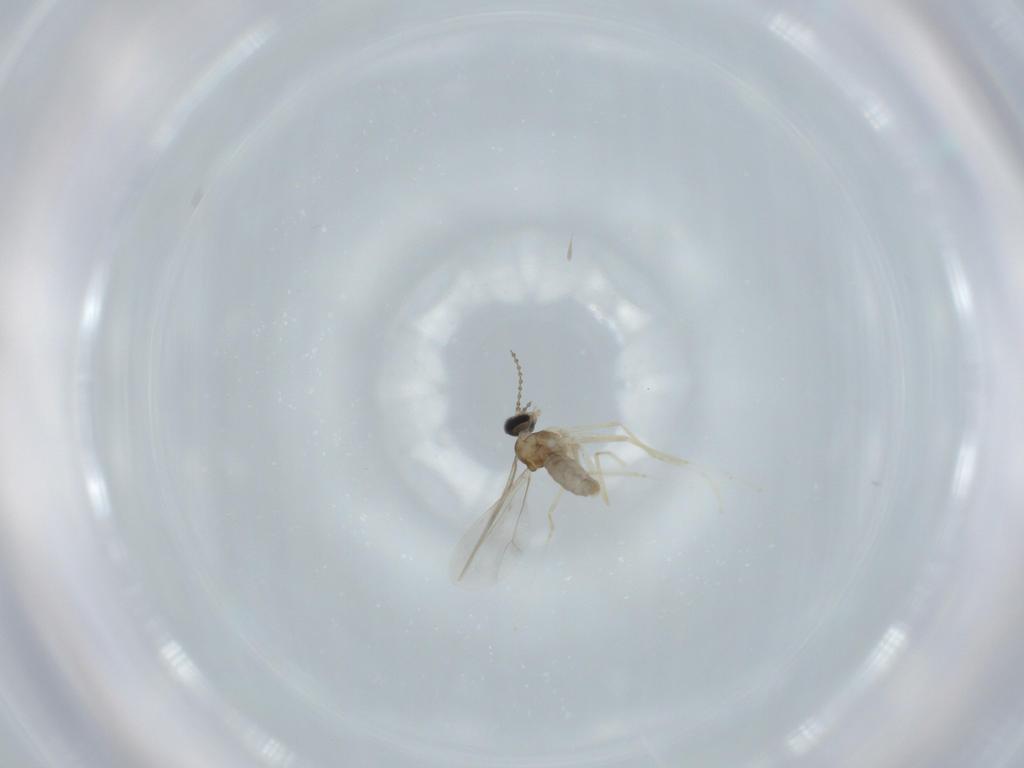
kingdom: Animalia
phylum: Arthropoda
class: Insecta
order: Diptera
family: Cecidomyiidae
